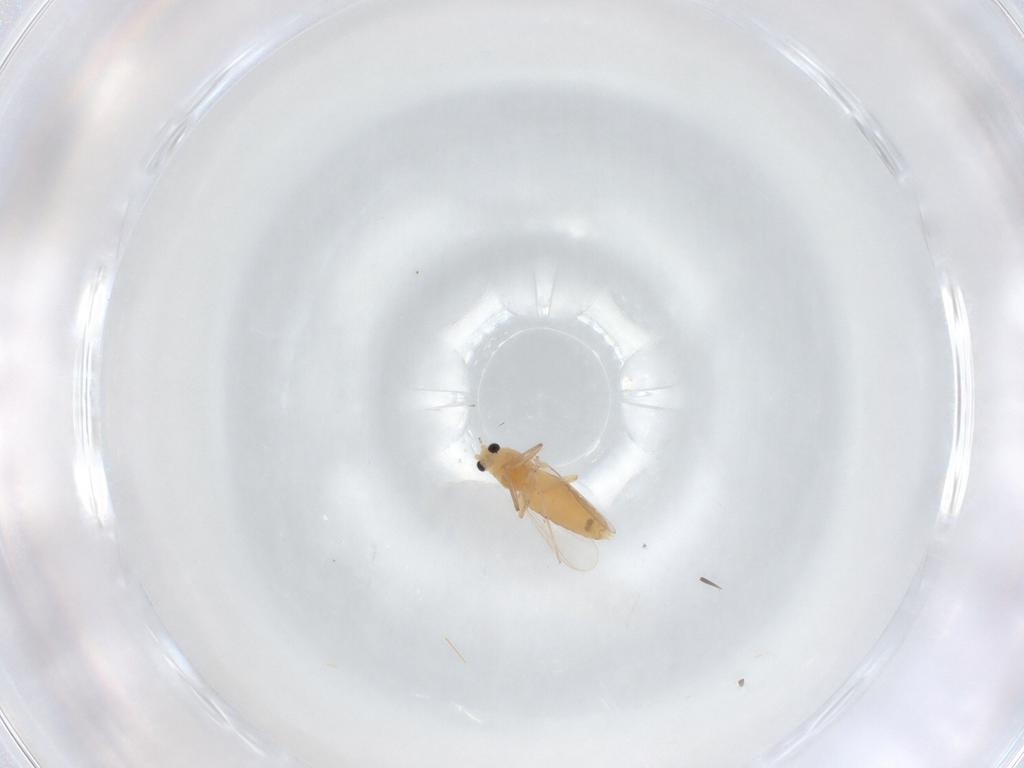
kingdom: Animalia
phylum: Arthropoda
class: Insecta
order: Diptera
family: Chironomidae
